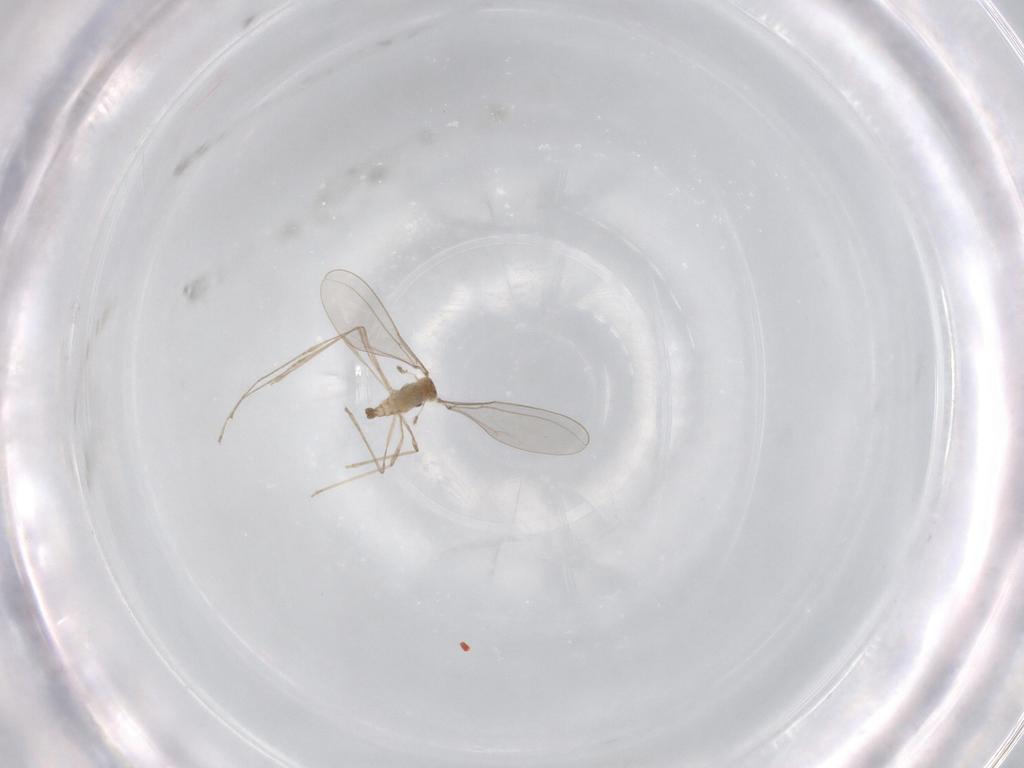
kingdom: Animalia
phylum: Arthropoda
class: Insecta
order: Diptera
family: Cecidomyiidae
